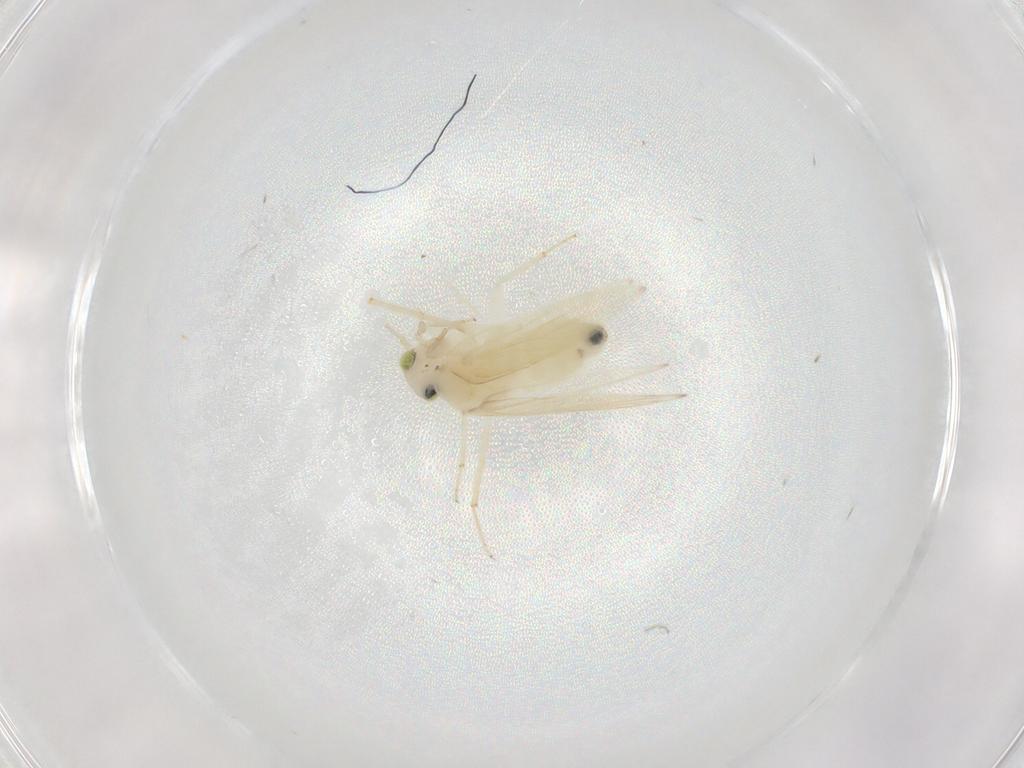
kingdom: Animalia
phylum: Arthropoda
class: Insecta
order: Psocodea
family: Lepidopsocidae
